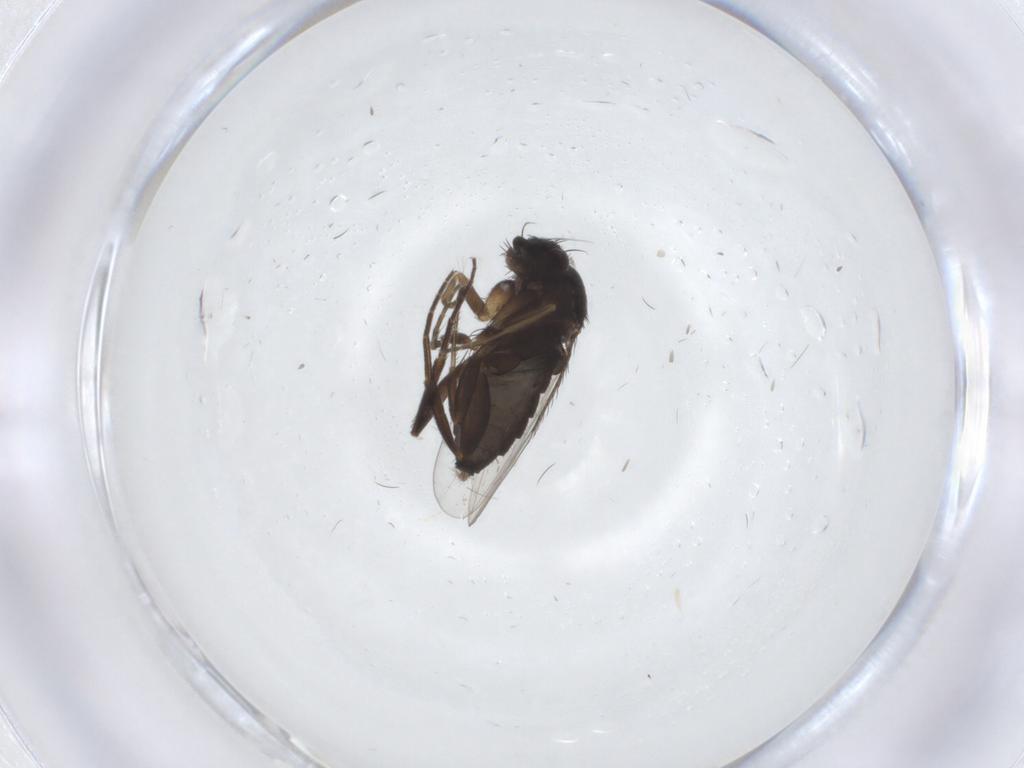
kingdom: Animalia
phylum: Arthropoda
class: Insecta
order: Diptera
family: Phoridae
